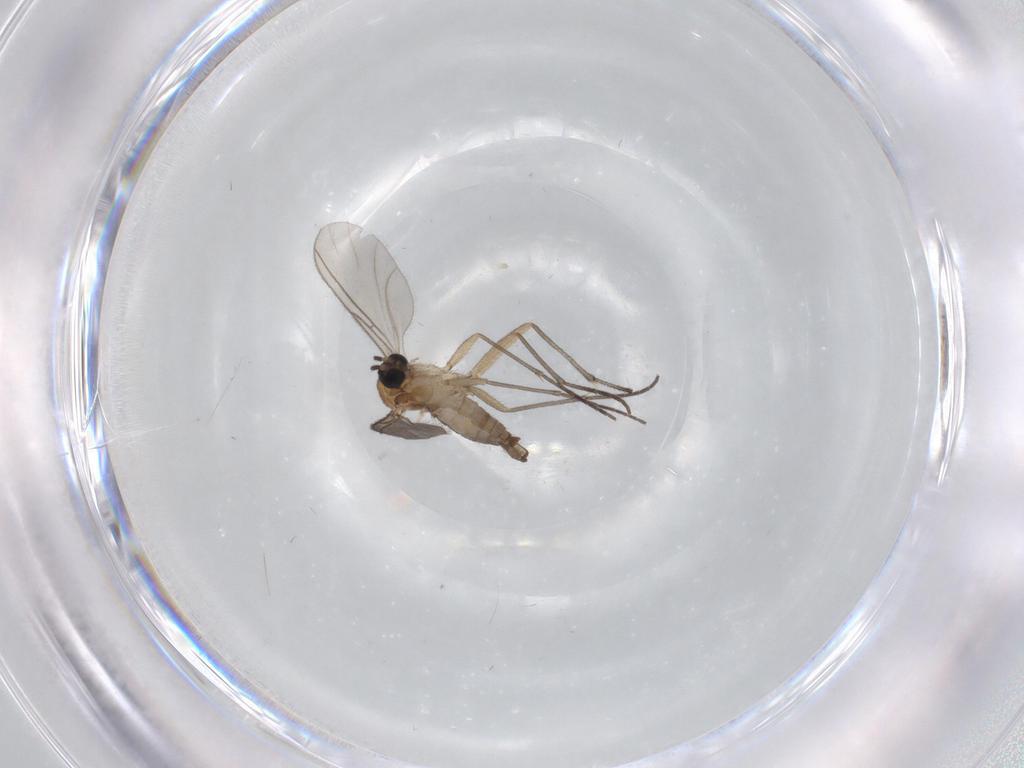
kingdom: Animalia
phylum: Arthropoda
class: Insecta
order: Diptera
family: Sciaridae
